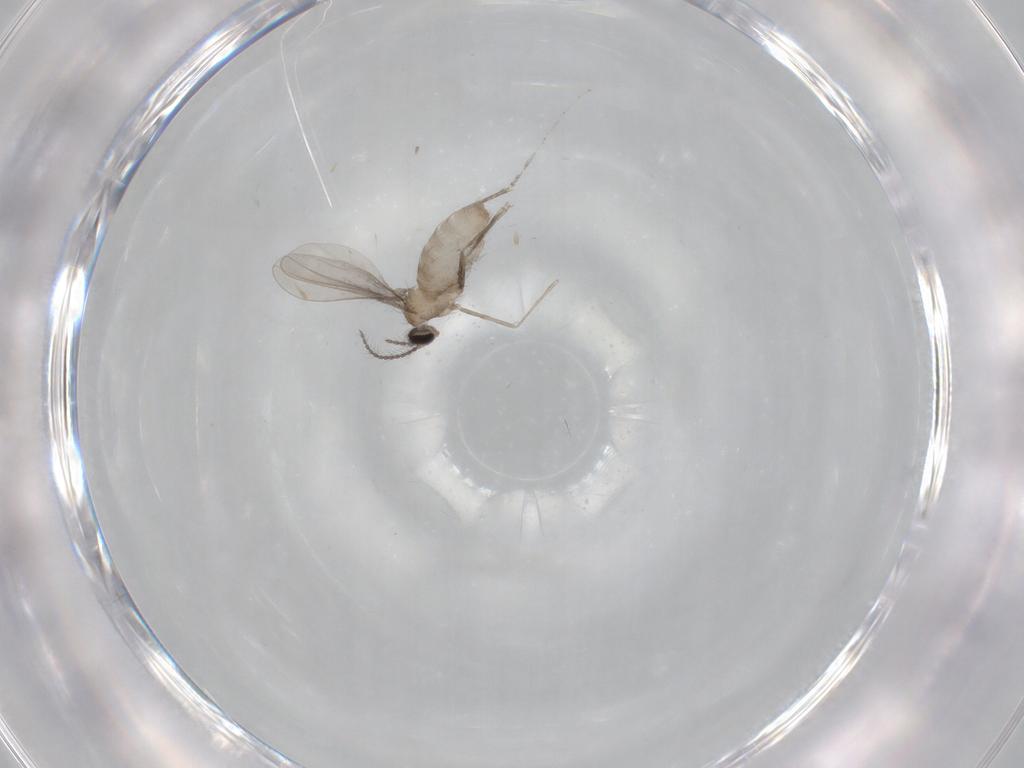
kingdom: Animalia
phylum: Arthropoda
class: Insecta
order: Diptera
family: Cecidomyiidae
